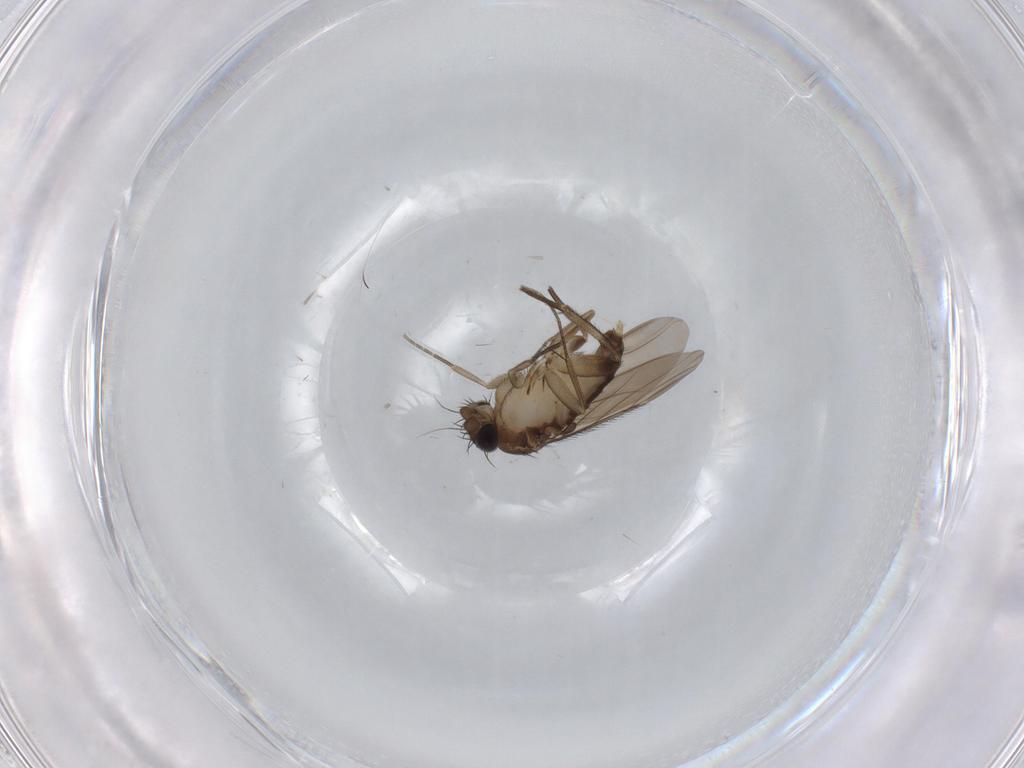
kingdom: Animalia
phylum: Arthropoda
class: Insecta
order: Diptera
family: Phoridae
